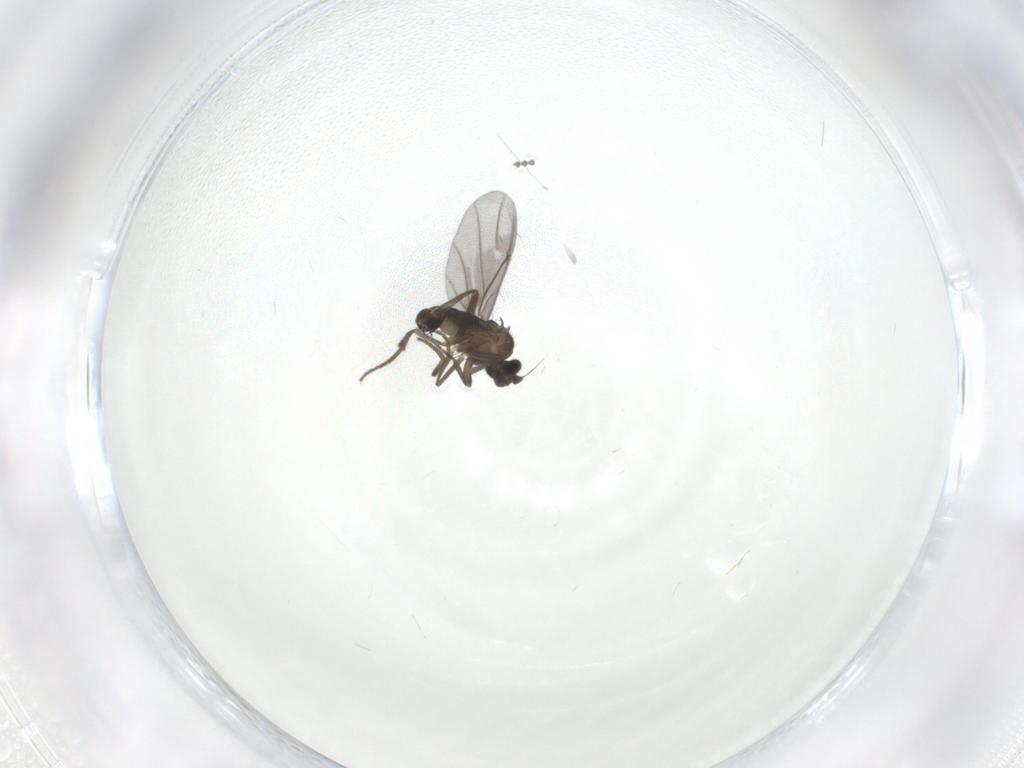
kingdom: Animalia
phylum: Arthropoda
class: Insecta
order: Diptera
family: Phoridae
